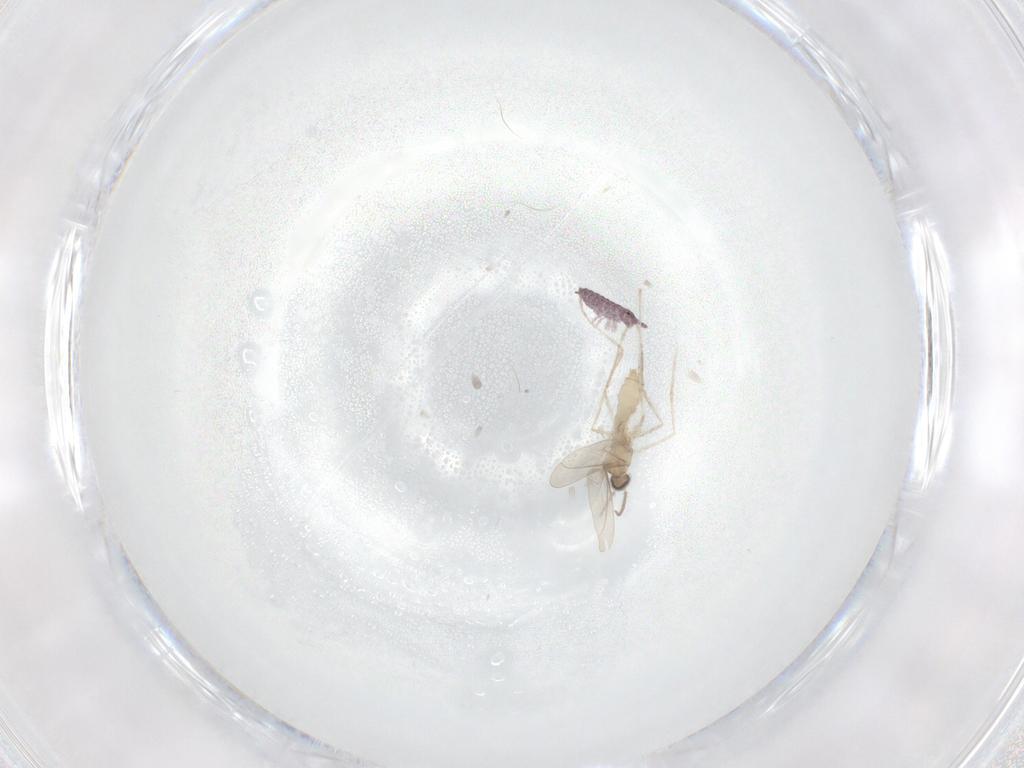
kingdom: Animalia
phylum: Arthropoda
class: Collembola
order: Poduromorpha
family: Hypogastruridae
